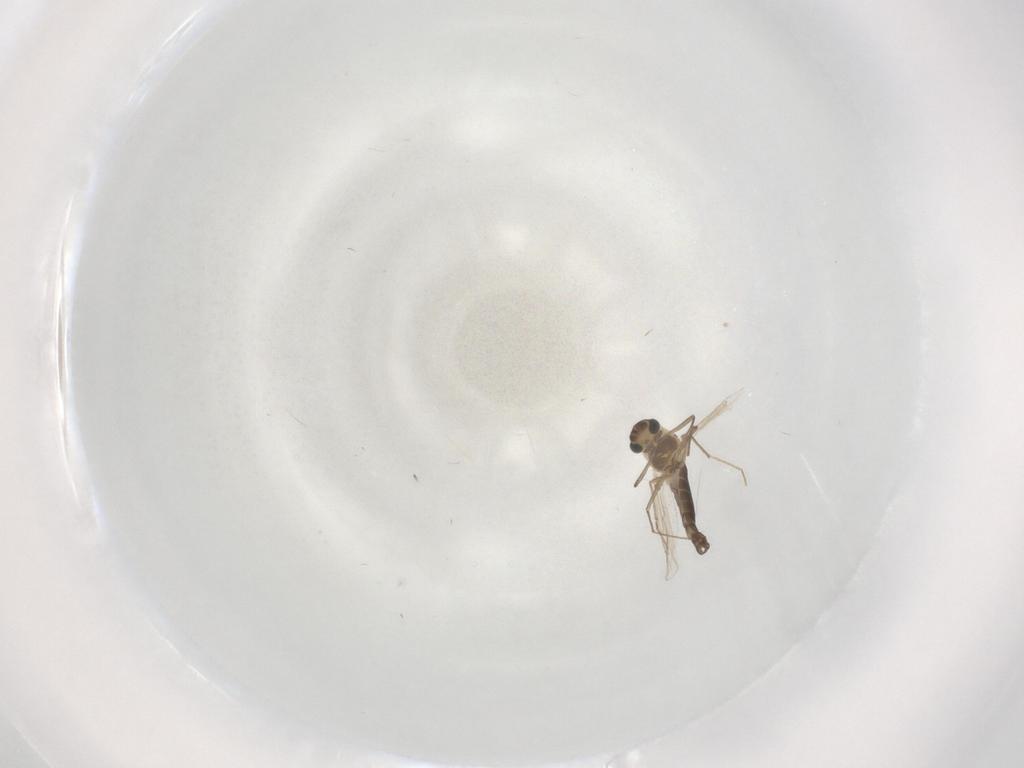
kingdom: Animalia
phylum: Arthropoda
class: Insecta
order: Diptera
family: Chironomidae
